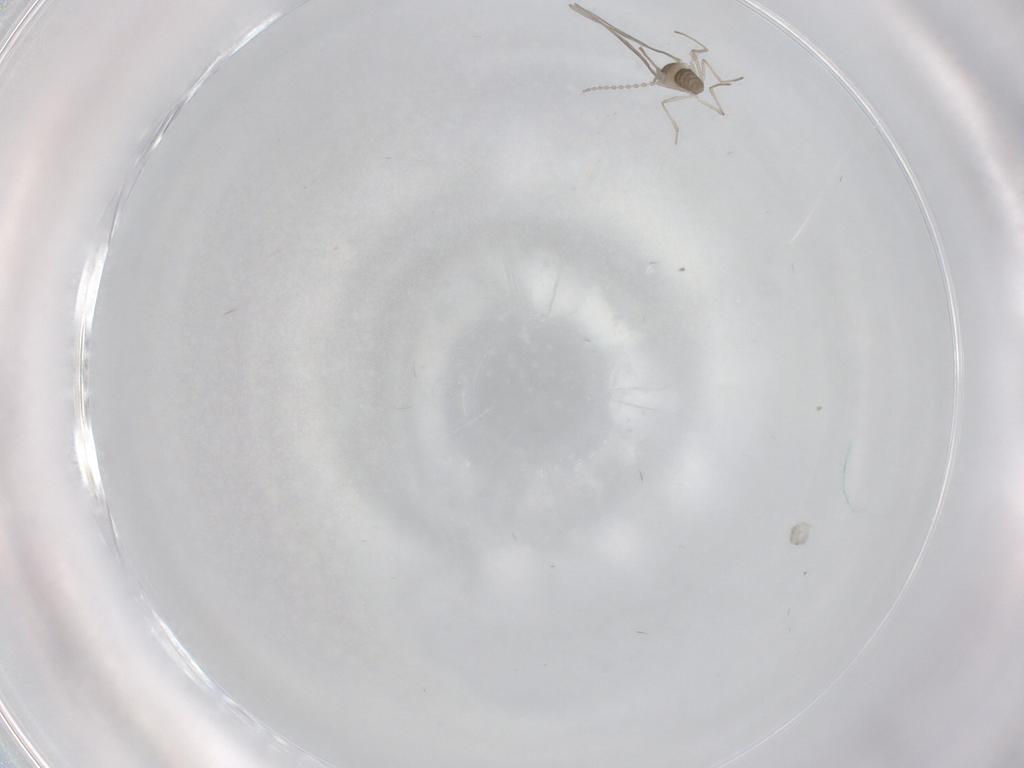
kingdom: Animalia
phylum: Arthropoda
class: Insecta
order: Diptera
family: Cecidomyiidae
